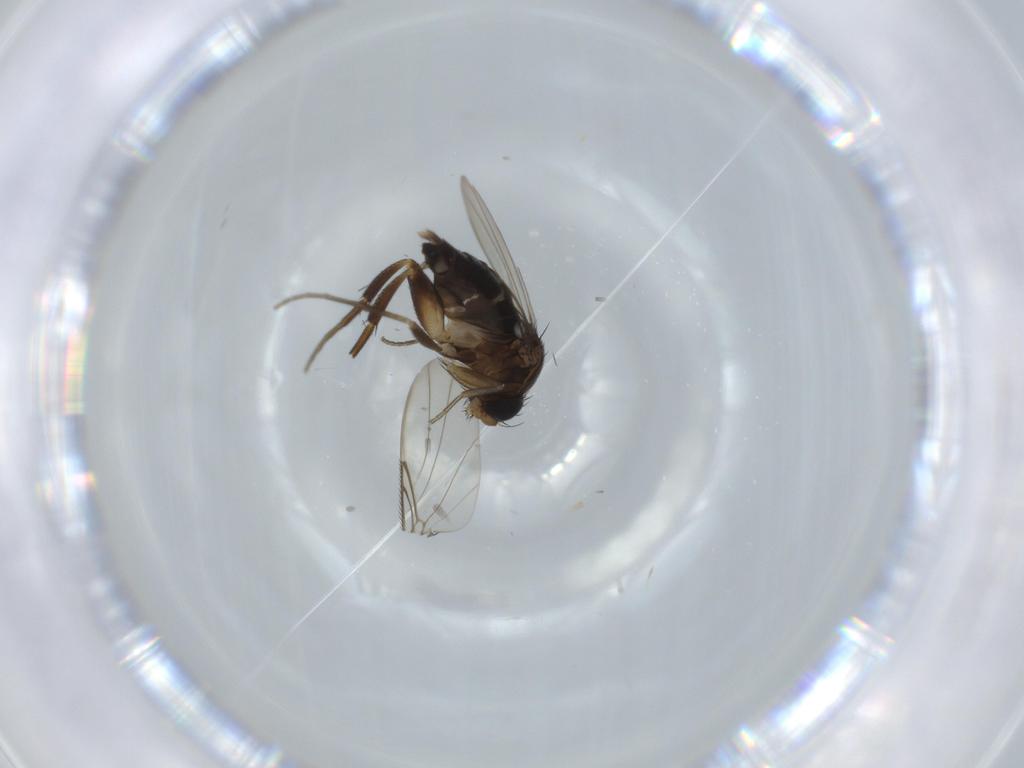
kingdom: Animalia
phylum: Arthropoda
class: Insecta
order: Diptera
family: Phoridae
